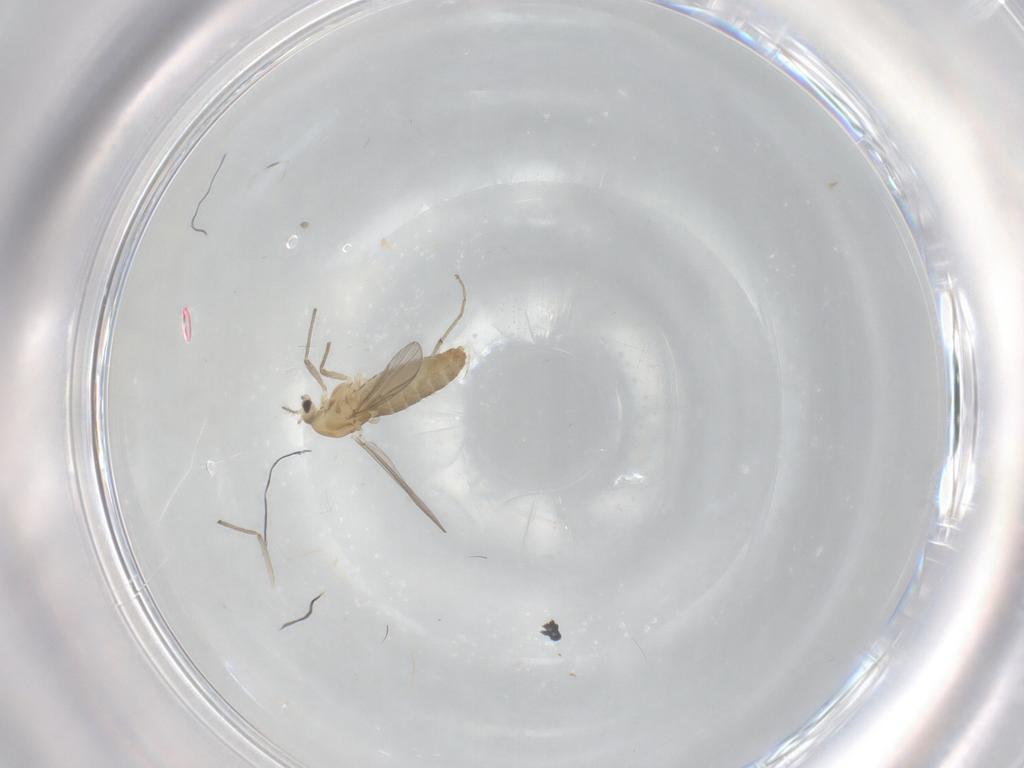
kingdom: Animalia
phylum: Arthropoda
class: Insecta
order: Diptera
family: Chironomidae
